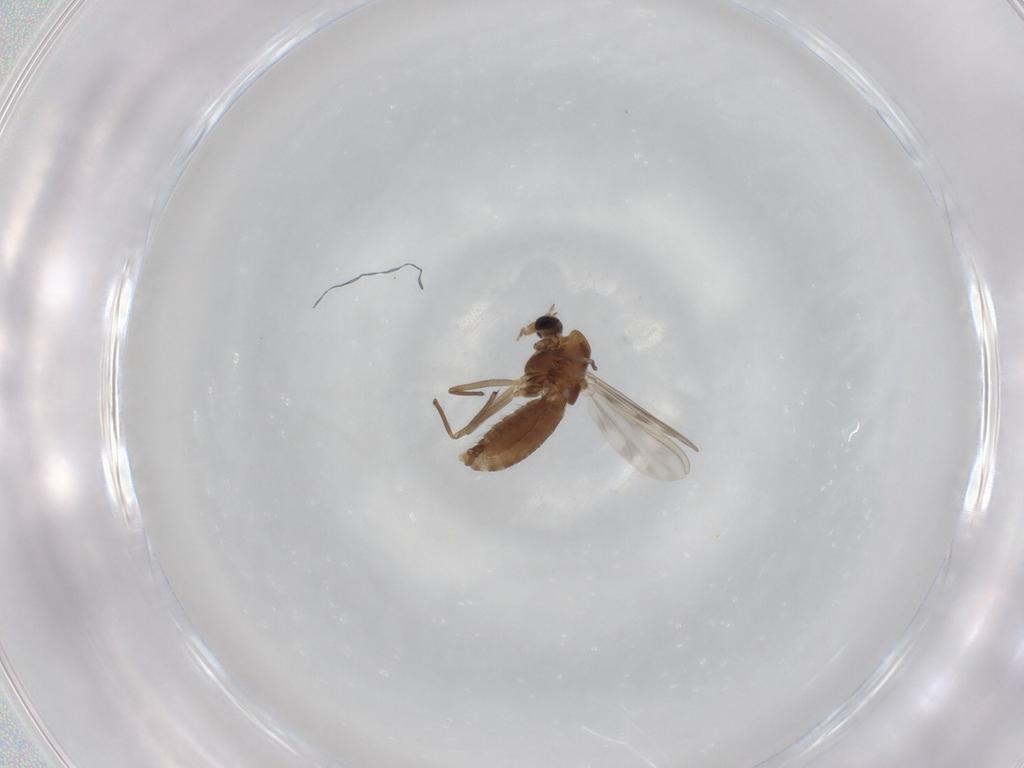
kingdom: Animalia
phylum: Arthropoda
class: Insecta
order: Diptera
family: Chironomidae
